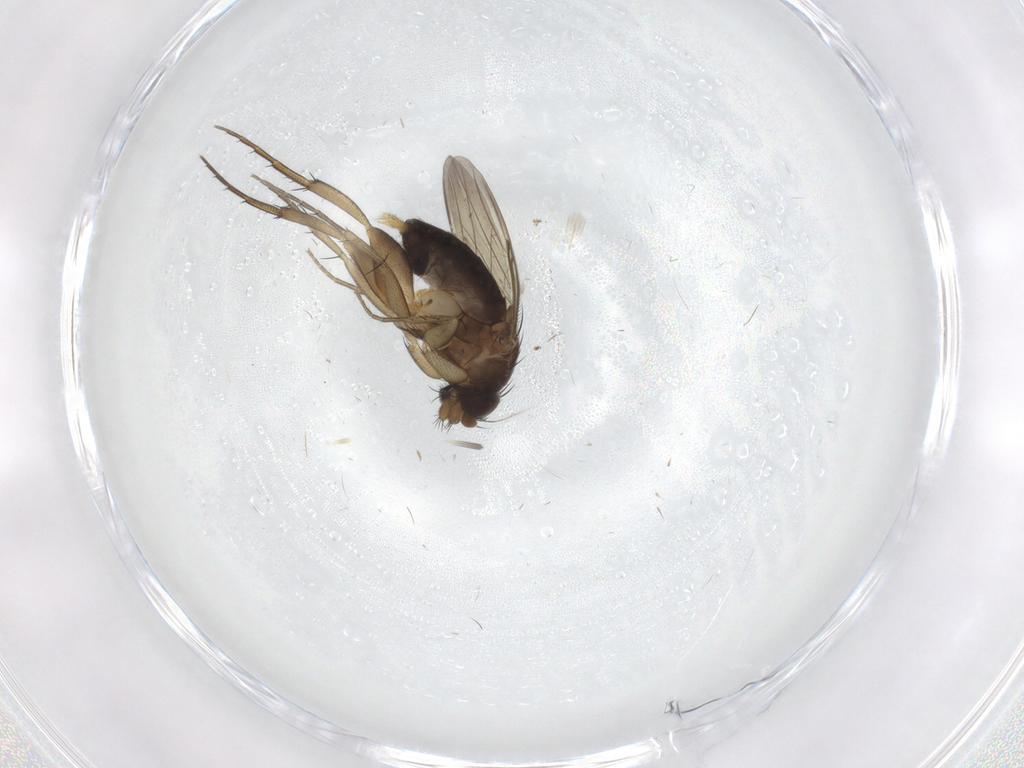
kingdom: Animalia
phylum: Arthropoda
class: Insecta
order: Diptera
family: Phoridae
